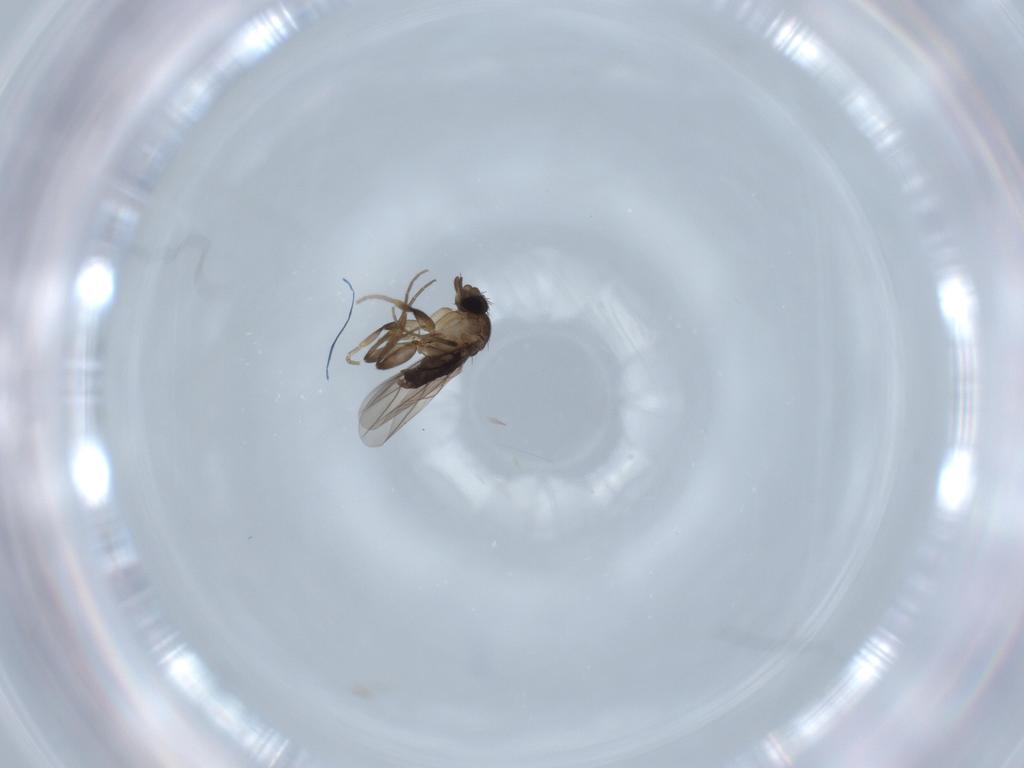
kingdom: Animalia
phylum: Arthropoda
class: Insecta
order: Diptera
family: Phoridae
